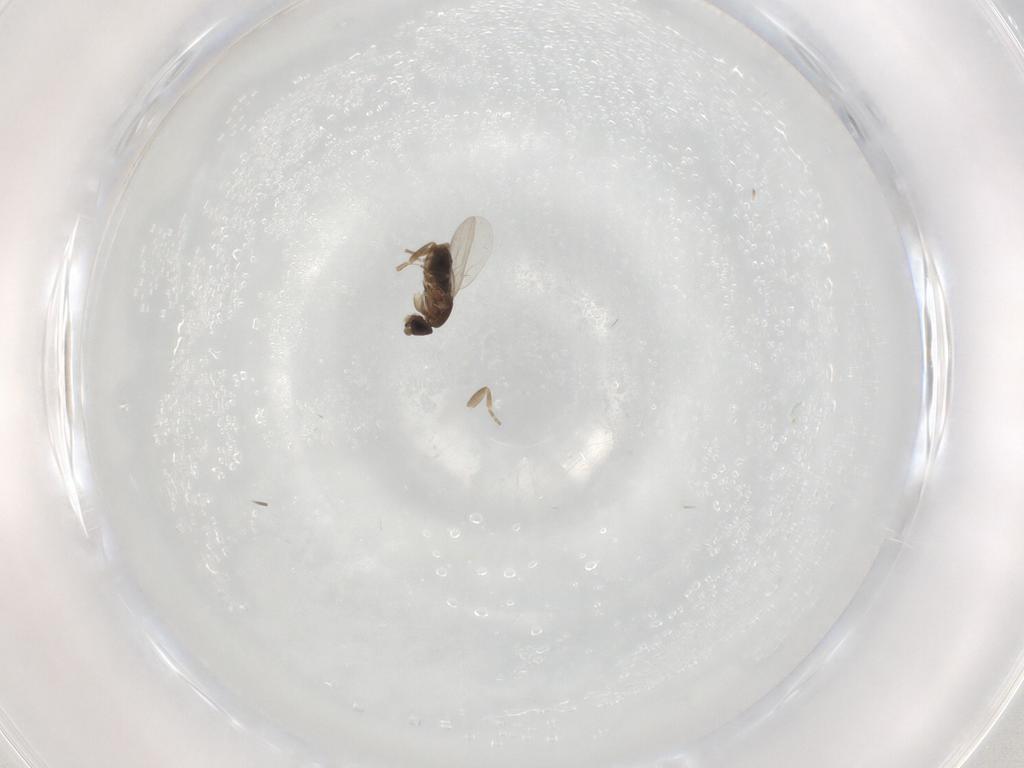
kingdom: Animalia
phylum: Arthropoda
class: Insecta
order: Diptera
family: Phoridae
